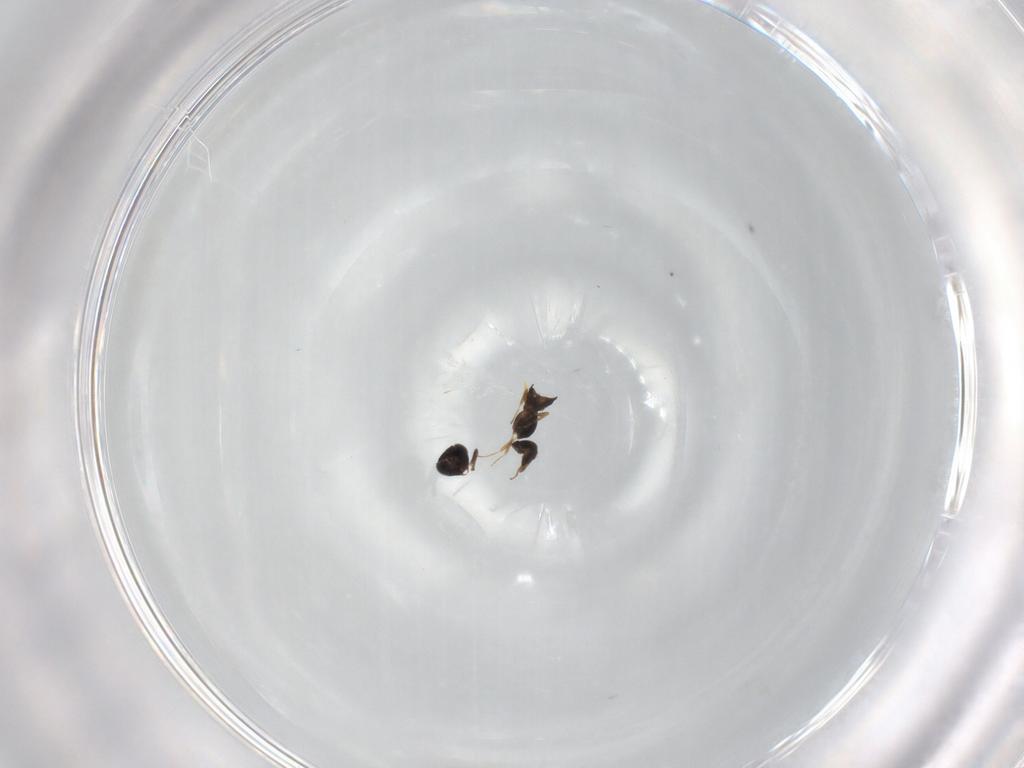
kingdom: Animalia
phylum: Arthropoda
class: Insecta
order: Hymenoptera
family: Scelionidae
